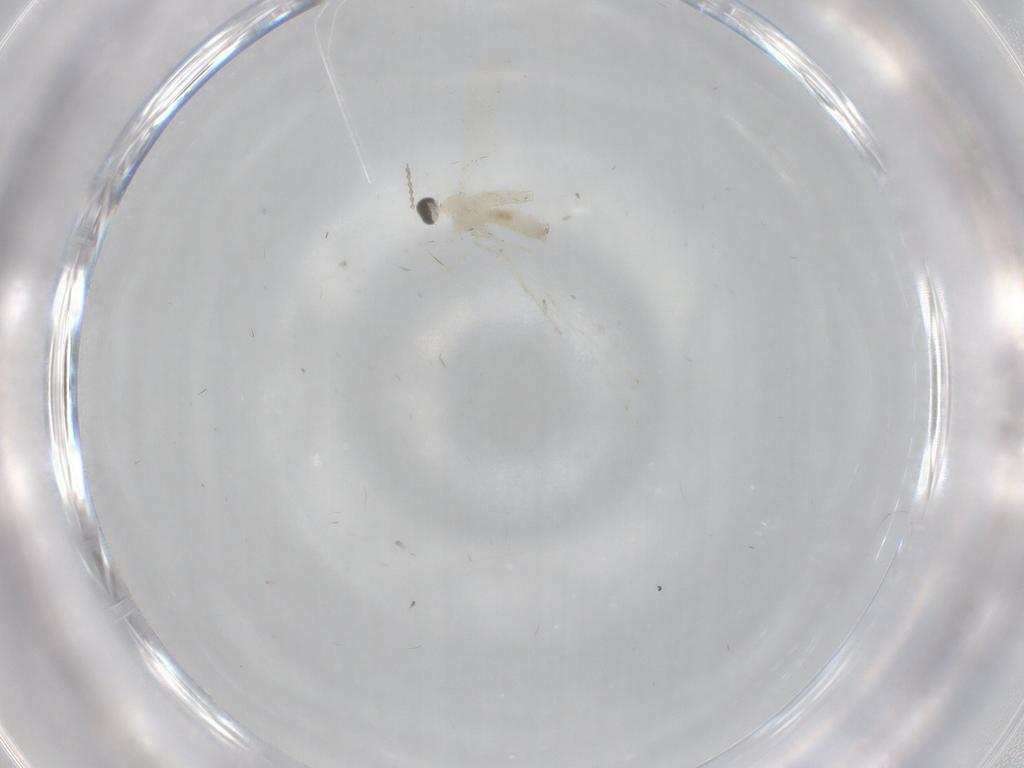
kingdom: Animalia
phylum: Arthropoda
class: Insecta
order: Diptera
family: Cecidomyiidae
